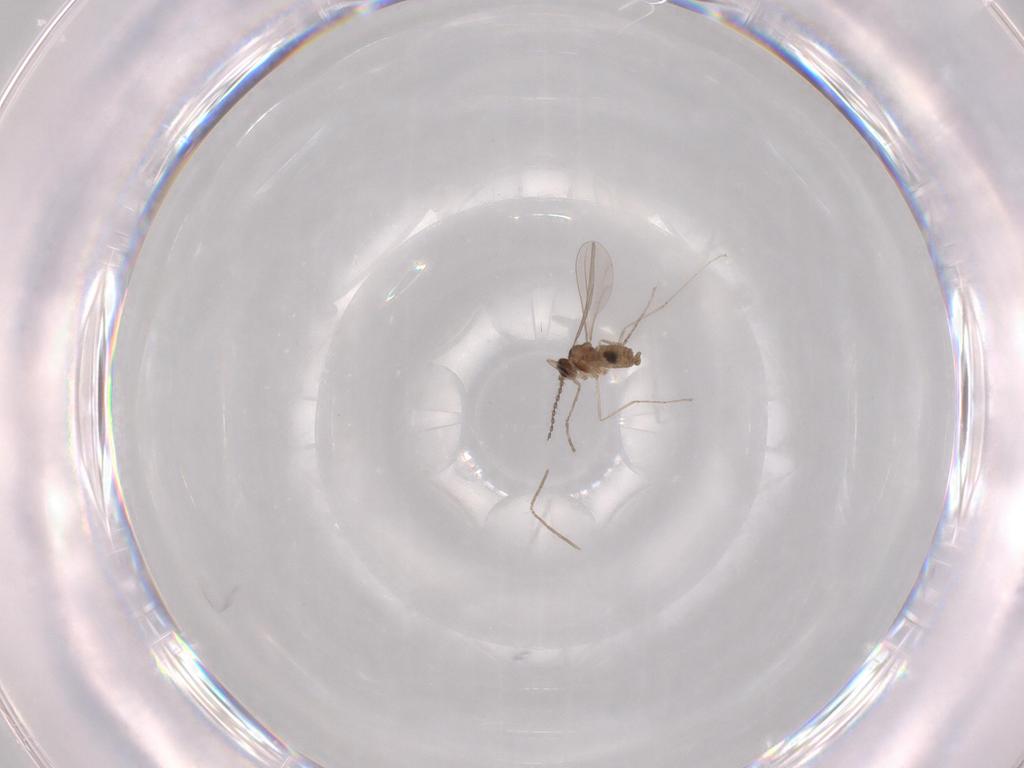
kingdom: Animalia
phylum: Arthropoda
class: Insecta
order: Diptera
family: Chironomidae
